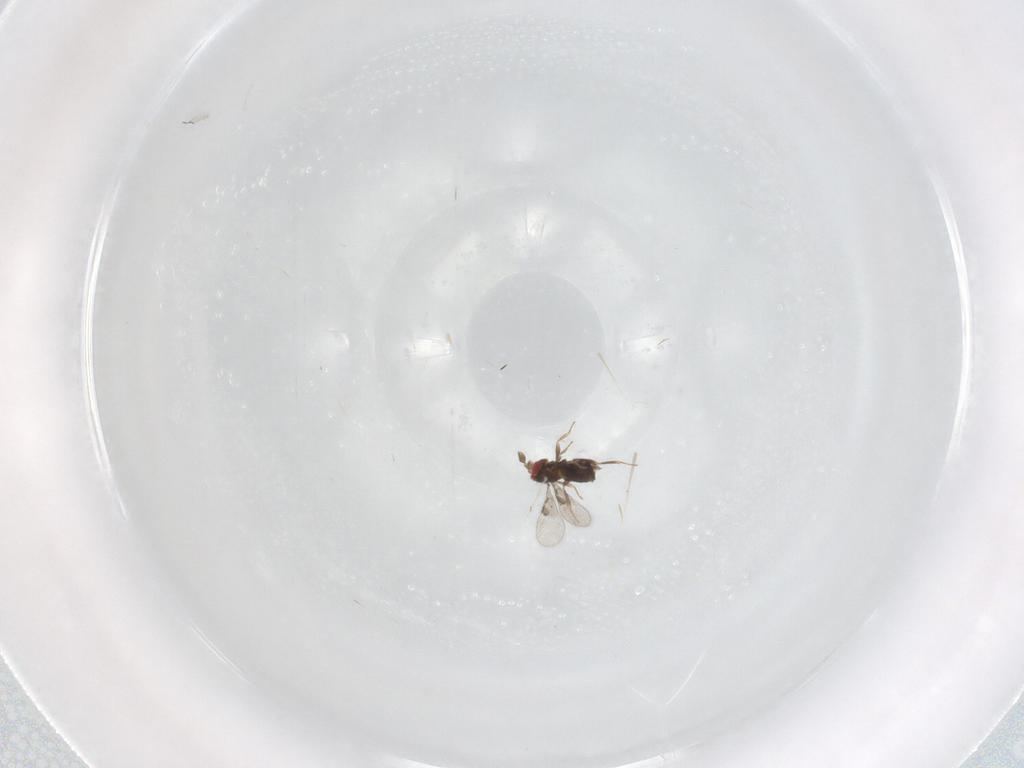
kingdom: Animalia
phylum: Arthropoda
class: Insecta
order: Hymenoptera
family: Trichogrammatidae
